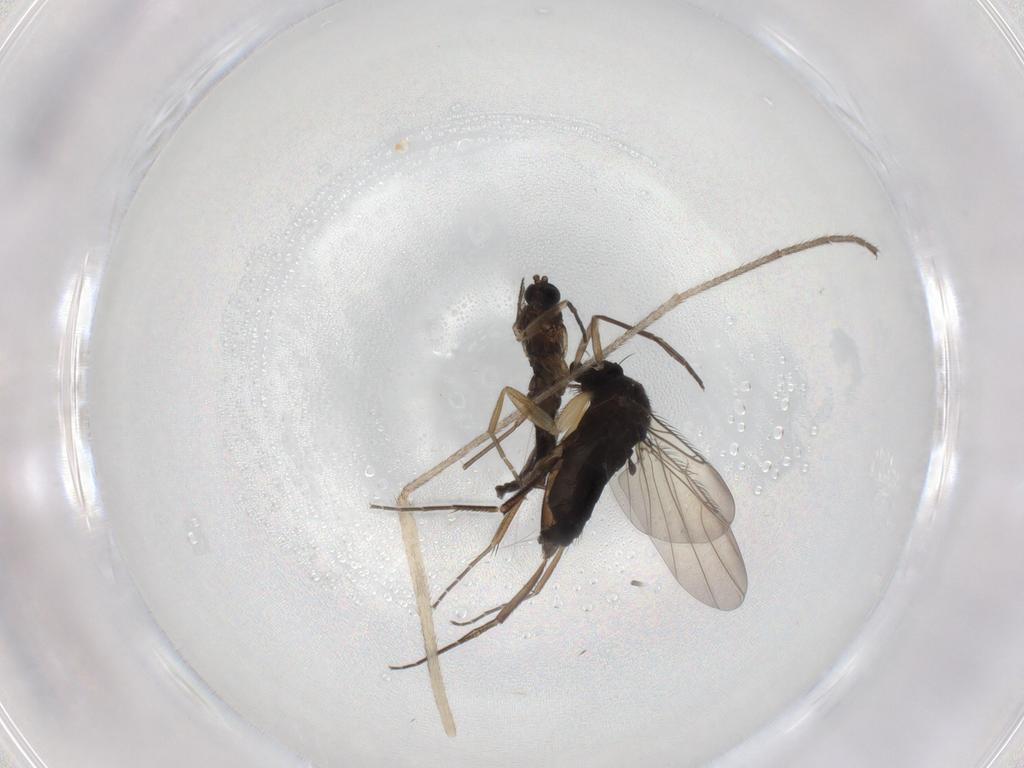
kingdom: Animalia
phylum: Arthropoda
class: Insecta
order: Diptera
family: Phoridae
